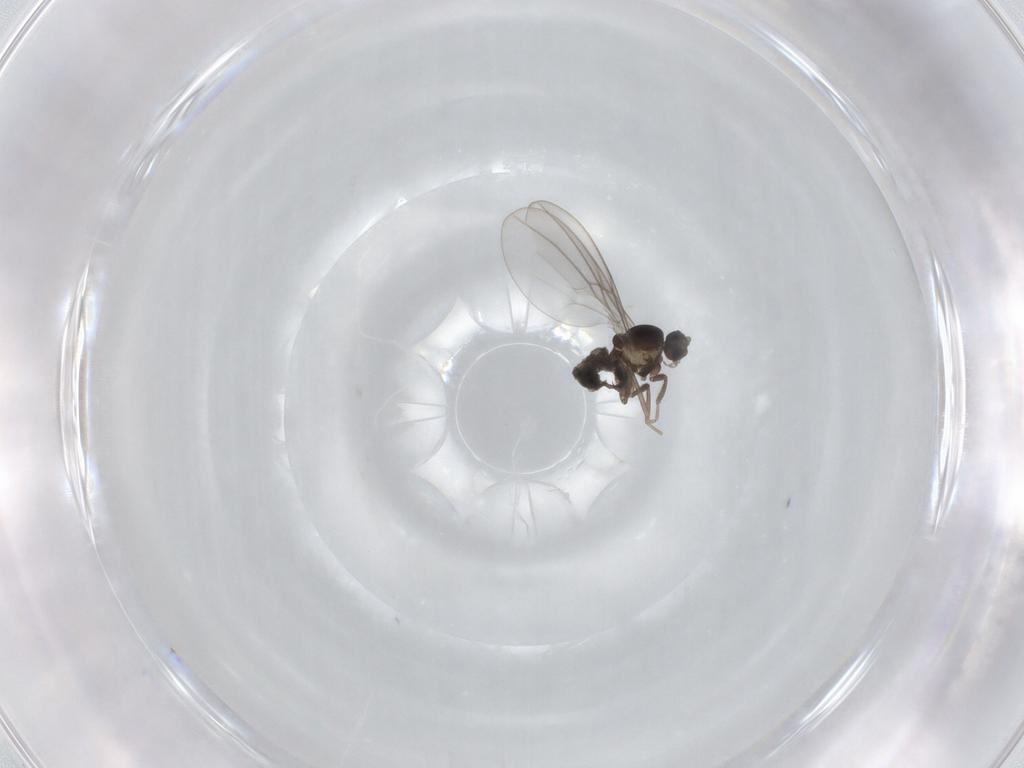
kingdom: Animalia
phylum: Arthropoda
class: Insecta
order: Diptera
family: Cecidomyiidae
